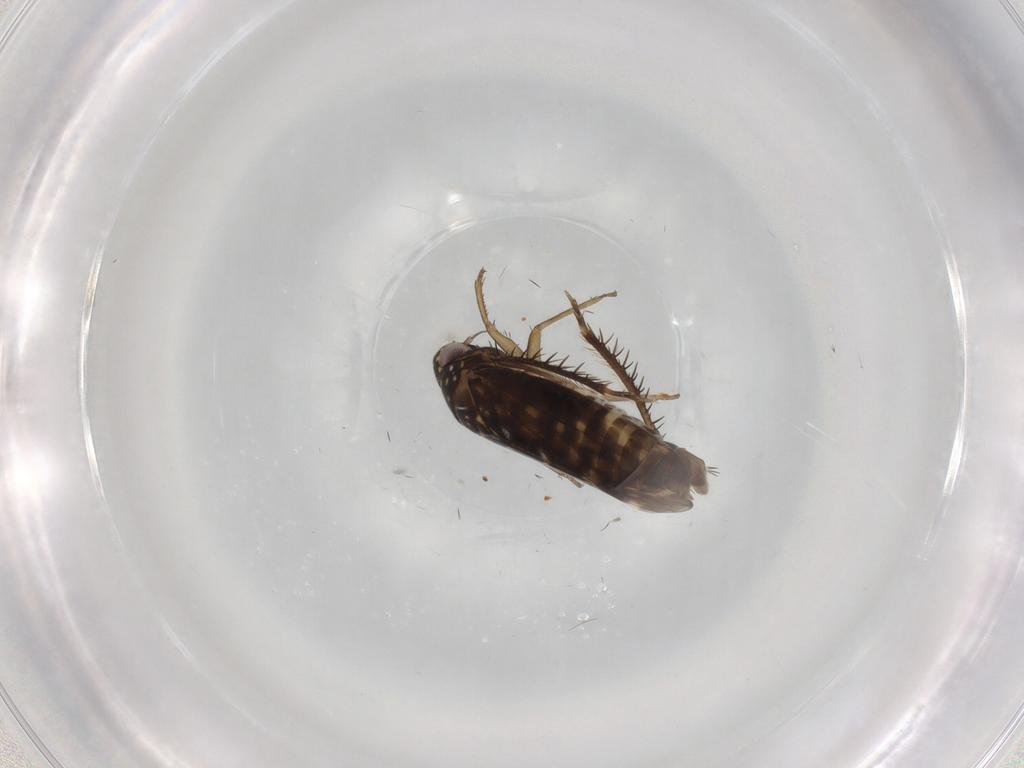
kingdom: Animalia
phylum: Arthropoda
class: Insecta
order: Hemiptera
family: Cicadellidae
